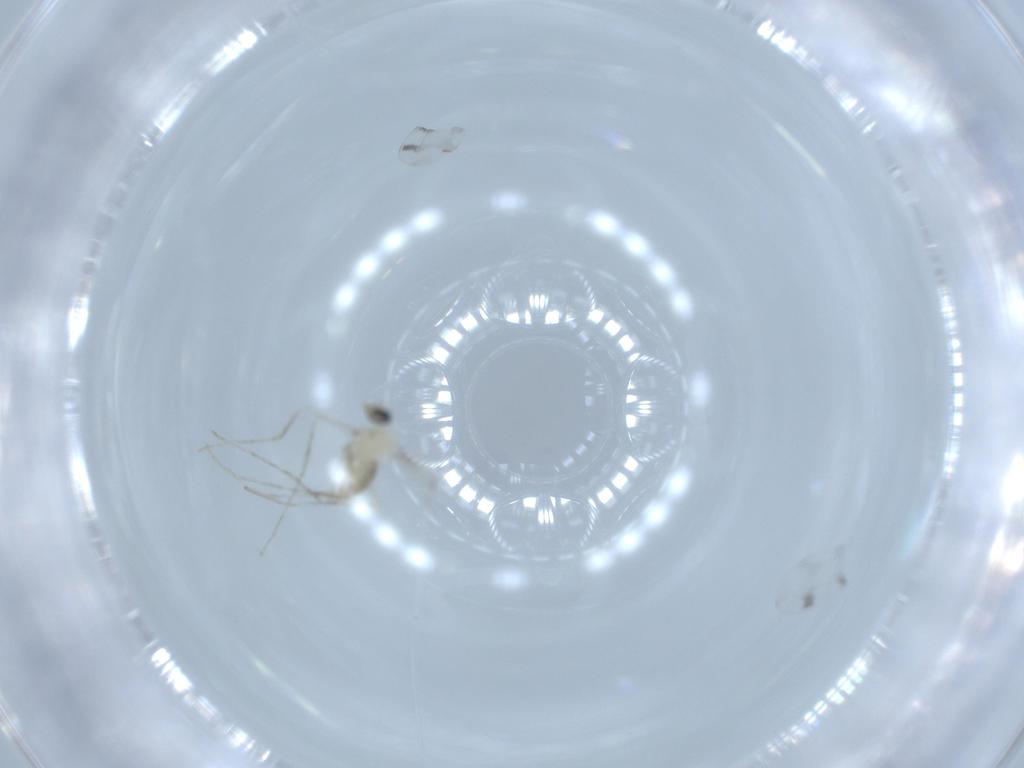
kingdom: Animalia
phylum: Arthropoda
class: Insecta
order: Diptera
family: Cecidomyiidae
